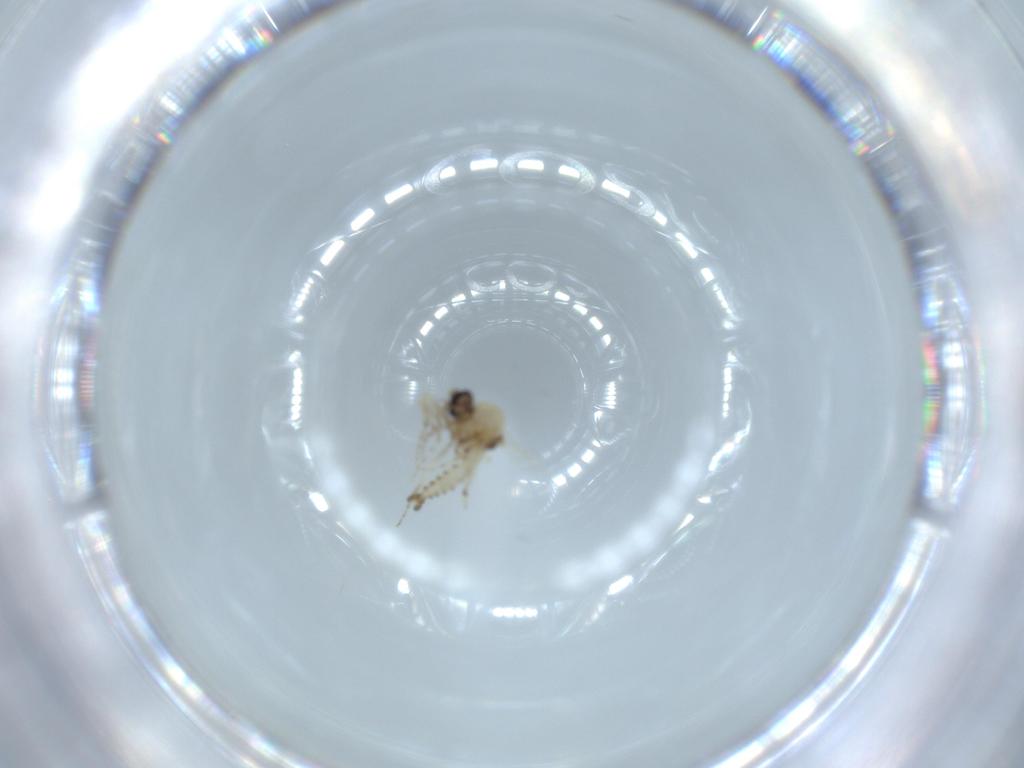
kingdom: Animalia
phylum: Arthropoda
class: Insecta
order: Diptera
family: Ceratopogonidae
